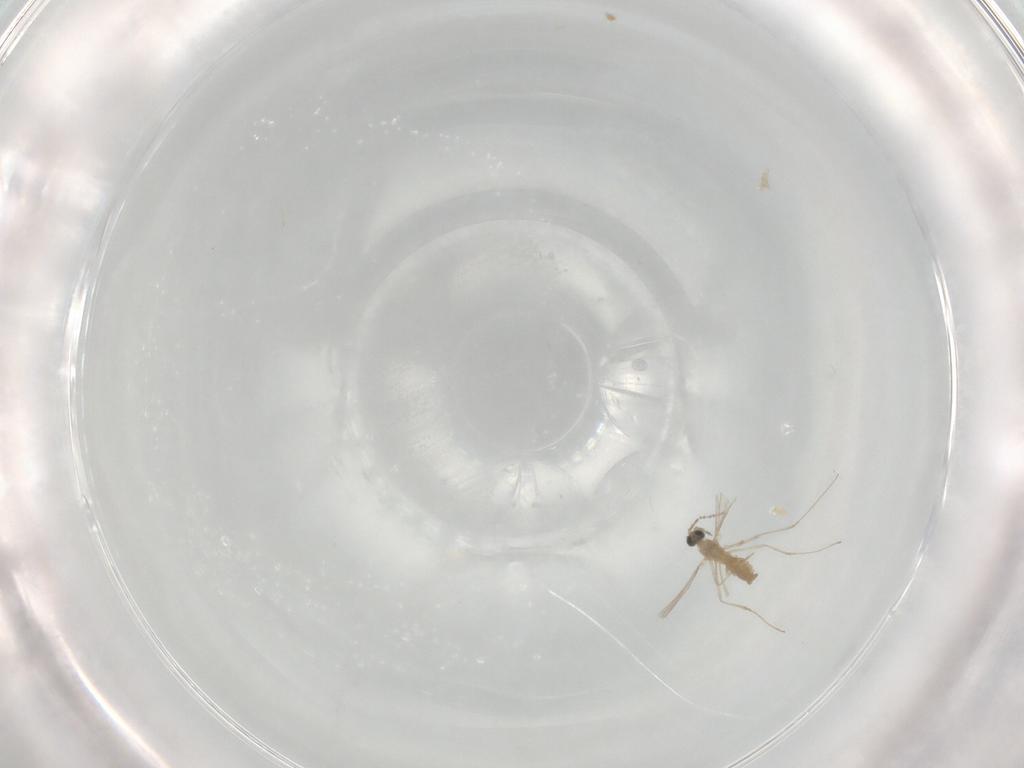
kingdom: Animalia
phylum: Arthropoda
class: Insecta
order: Diptera
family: Cecidomyiidae
